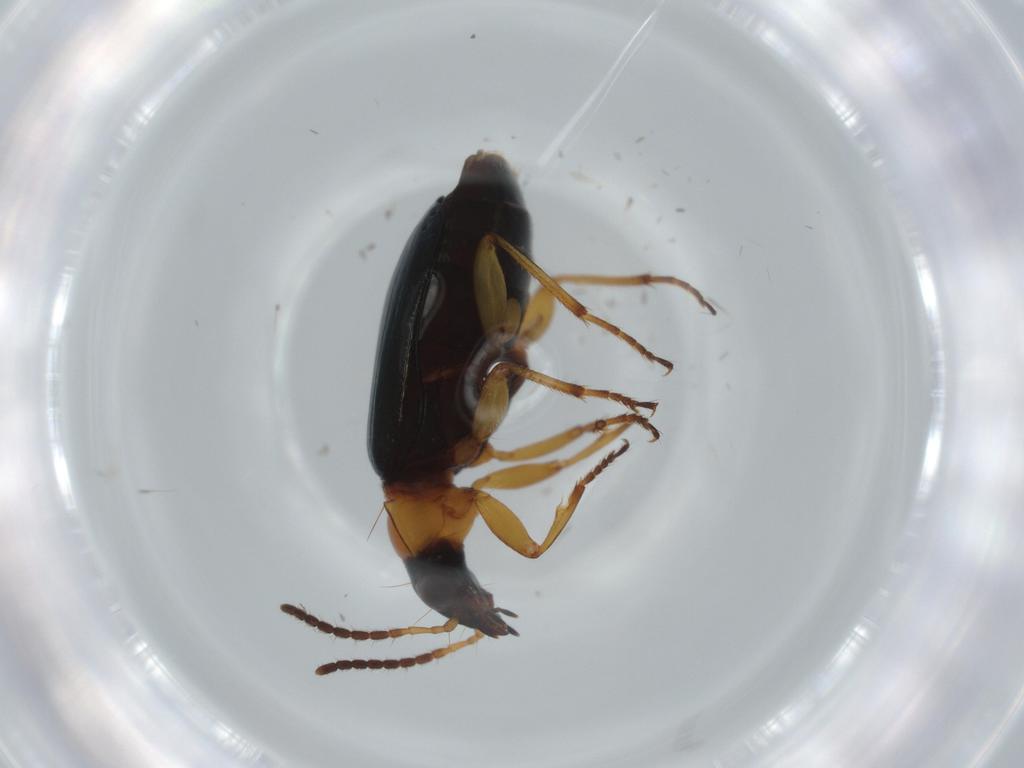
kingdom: Animalia
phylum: Arthropoda
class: Insecta
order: Coleoptera
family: Carabidae
